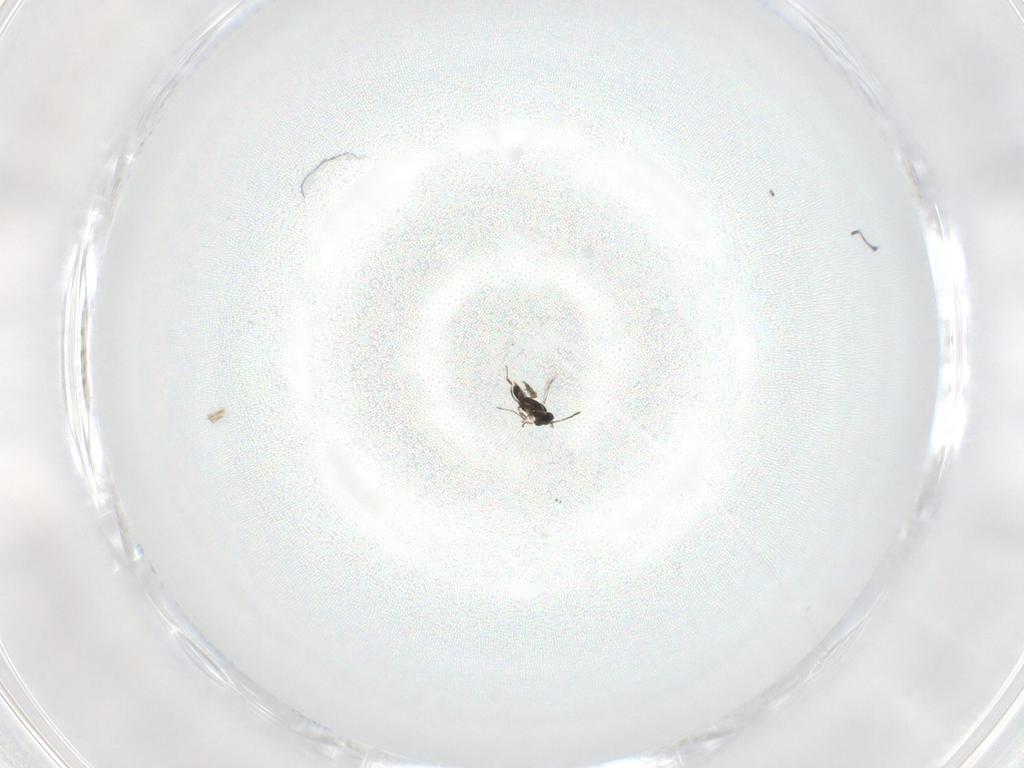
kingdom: Animalia
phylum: Arthropoda
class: Insecta
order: Hymenoptera
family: Mymaridae
